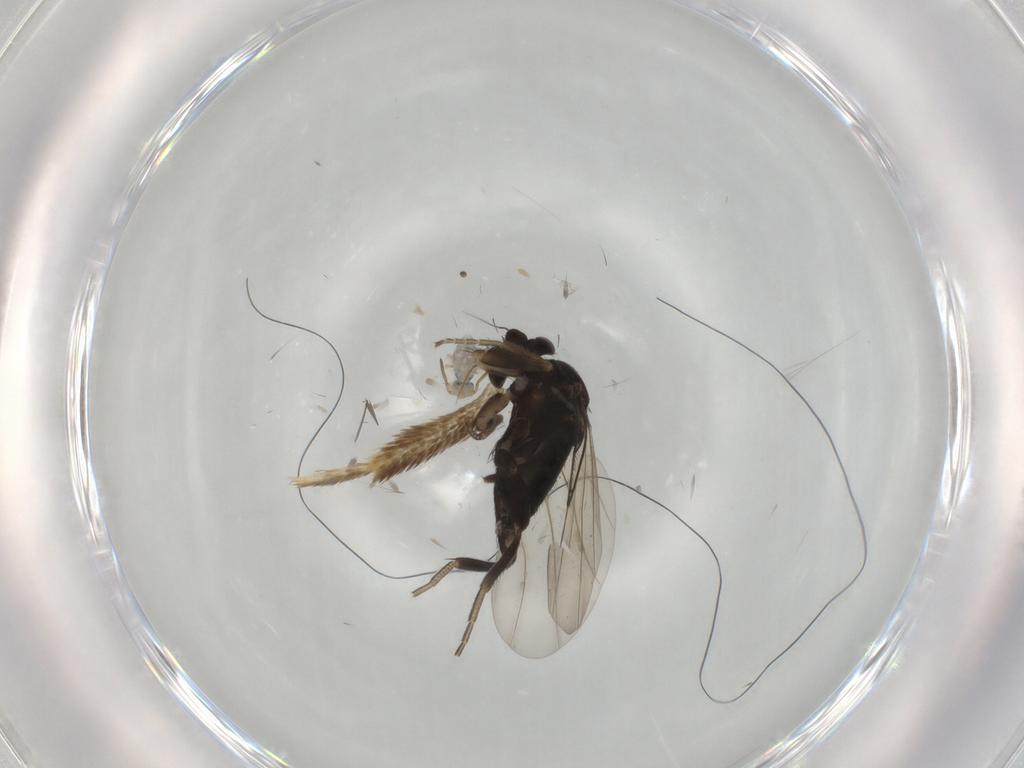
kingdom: Animalia
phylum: Arthropoda
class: Insecta
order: Diptera
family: Phoridae
